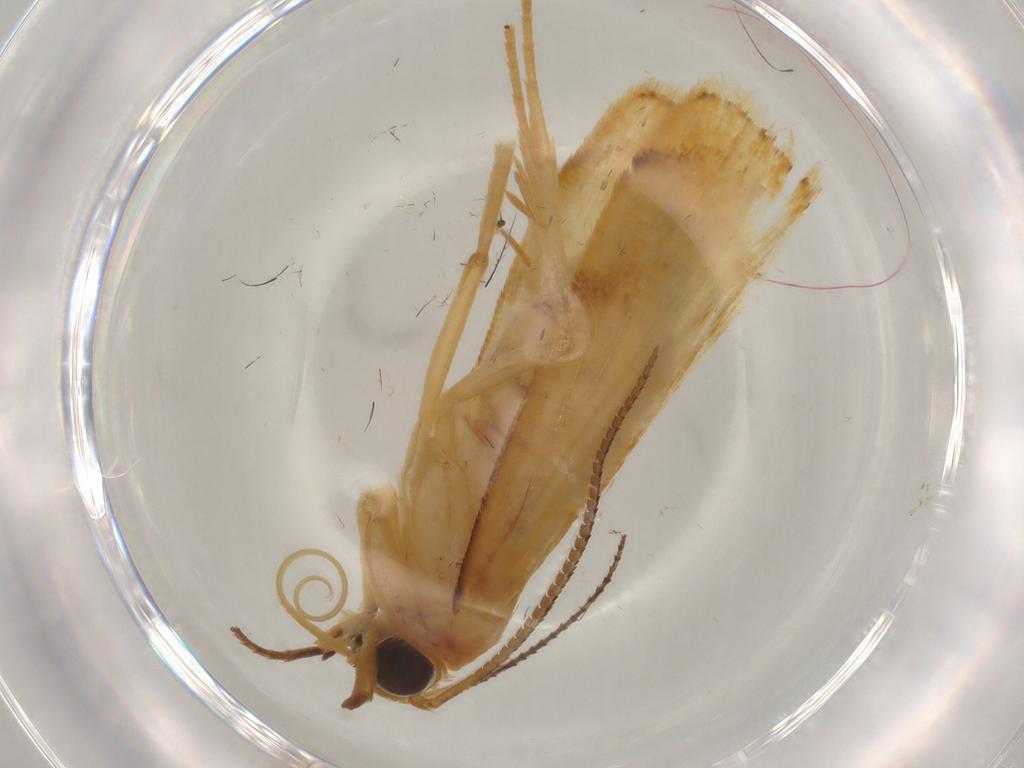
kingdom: Animalia
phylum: Arthropoda
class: Insecta
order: Lepidoptera
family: Crambidae
